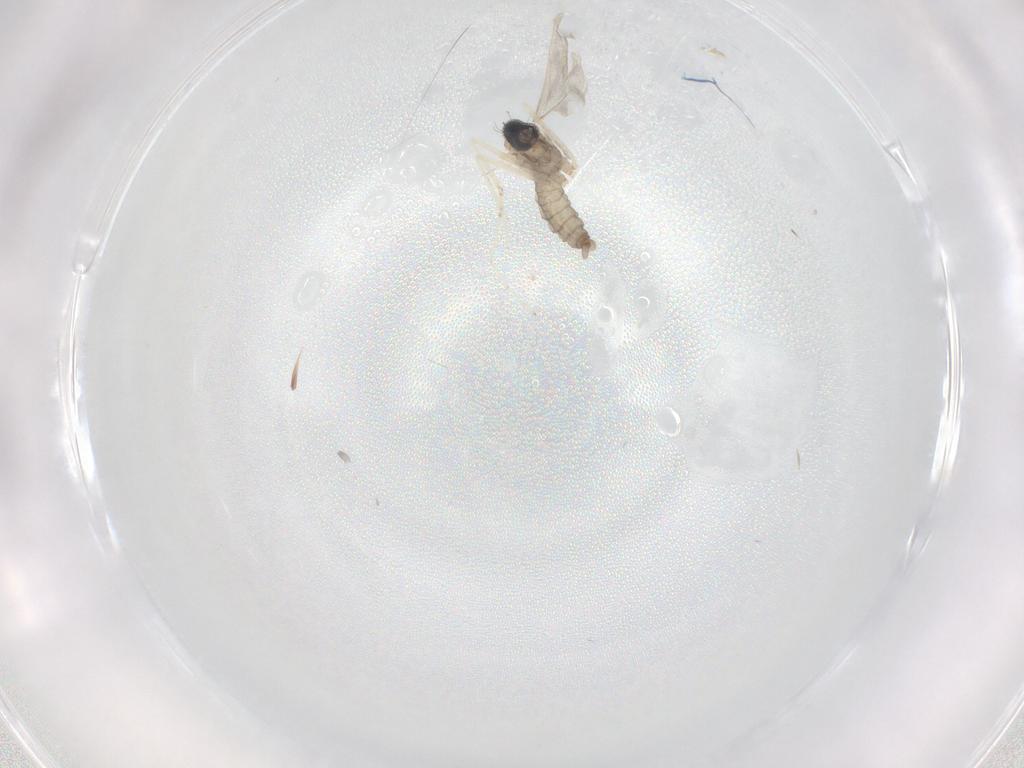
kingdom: Animalia
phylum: Arthropoda
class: Insecta
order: Diptera
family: Cecidomyiidae
